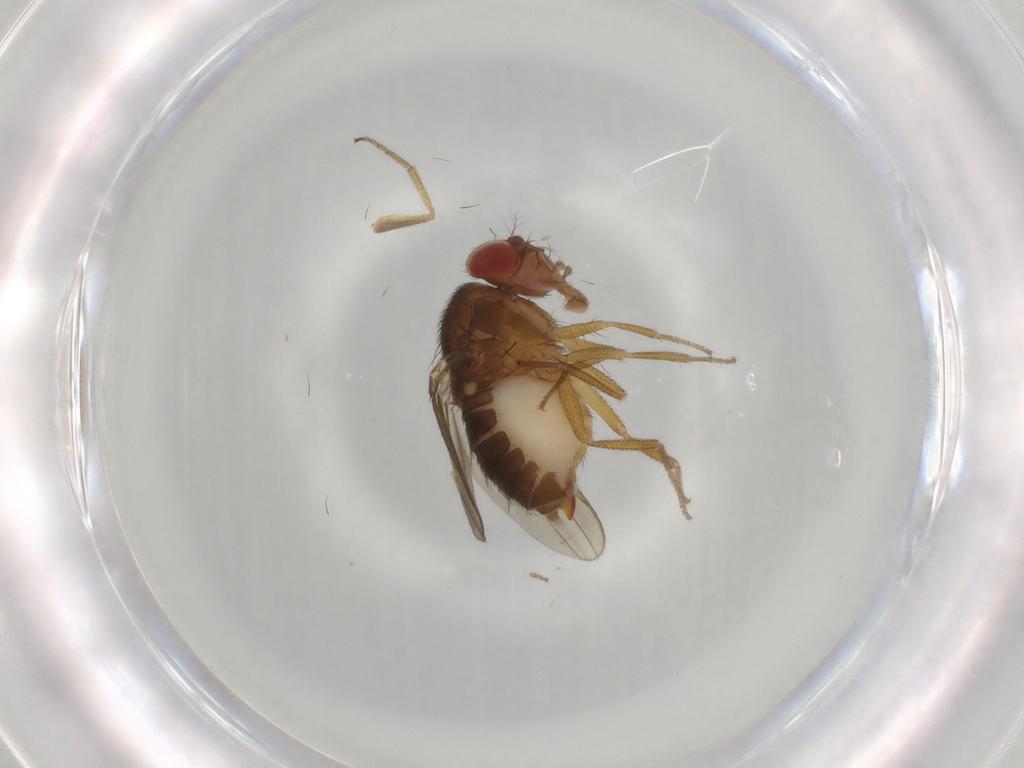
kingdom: Animalia
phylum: Arthropoda
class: Insecta
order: Diptera
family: Drosophilidae
